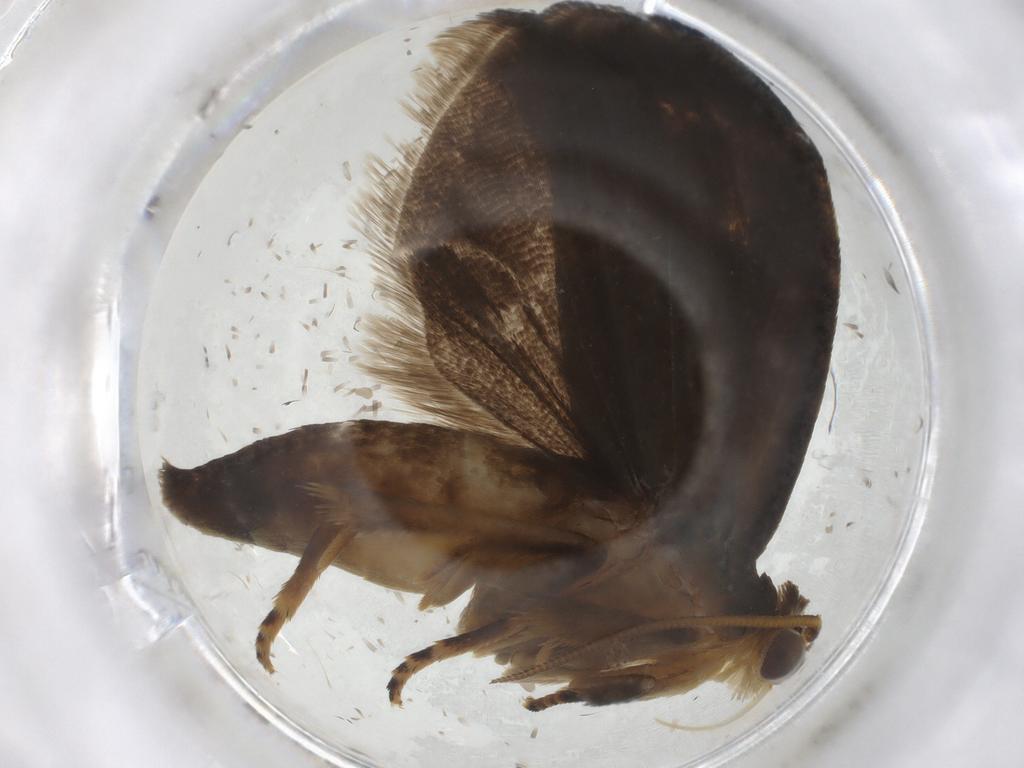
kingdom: Animalia
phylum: Arthropoda
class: Insecta
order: Lepidoptera
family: Tortricidae
